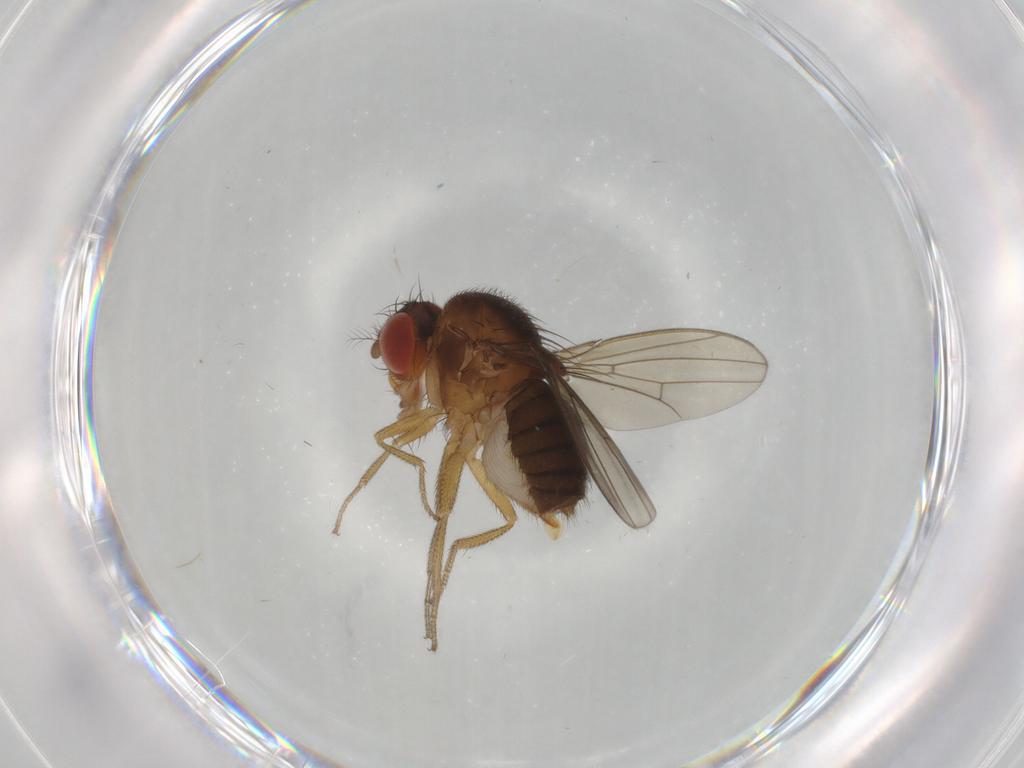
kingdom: Animalia
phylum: Arthropoda
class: Insecta
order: Diptera
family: Drosophilidae
